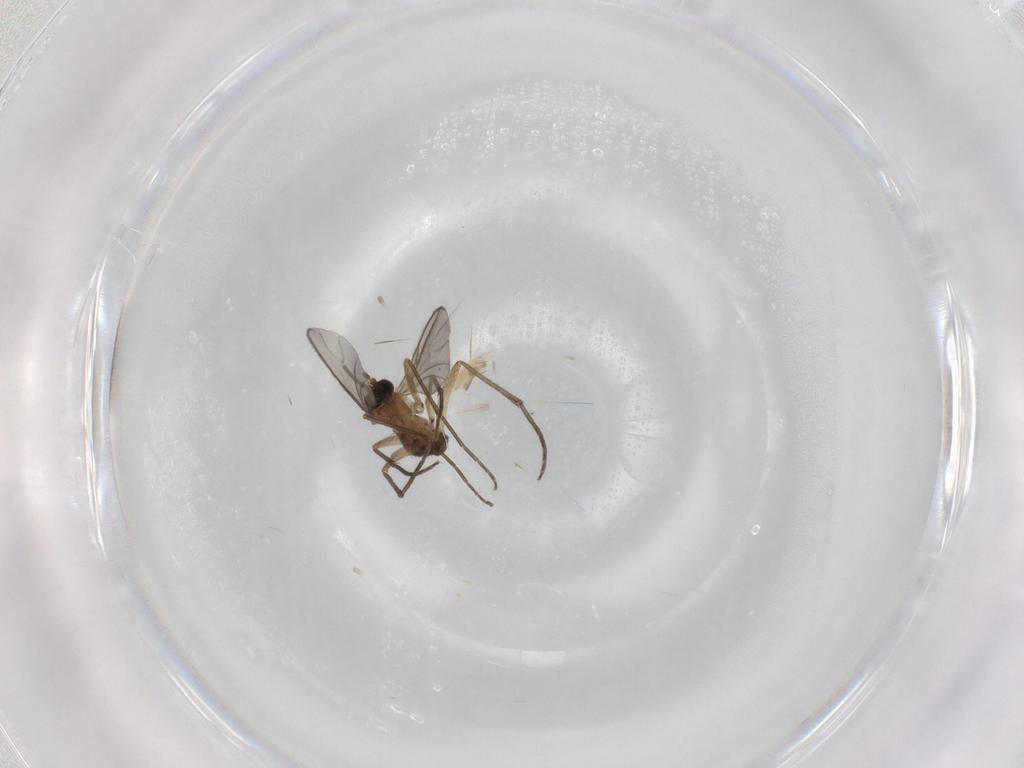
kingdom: Animalia
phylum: Arthropoda
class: Insecta
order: Diptera
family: Sciaridae
